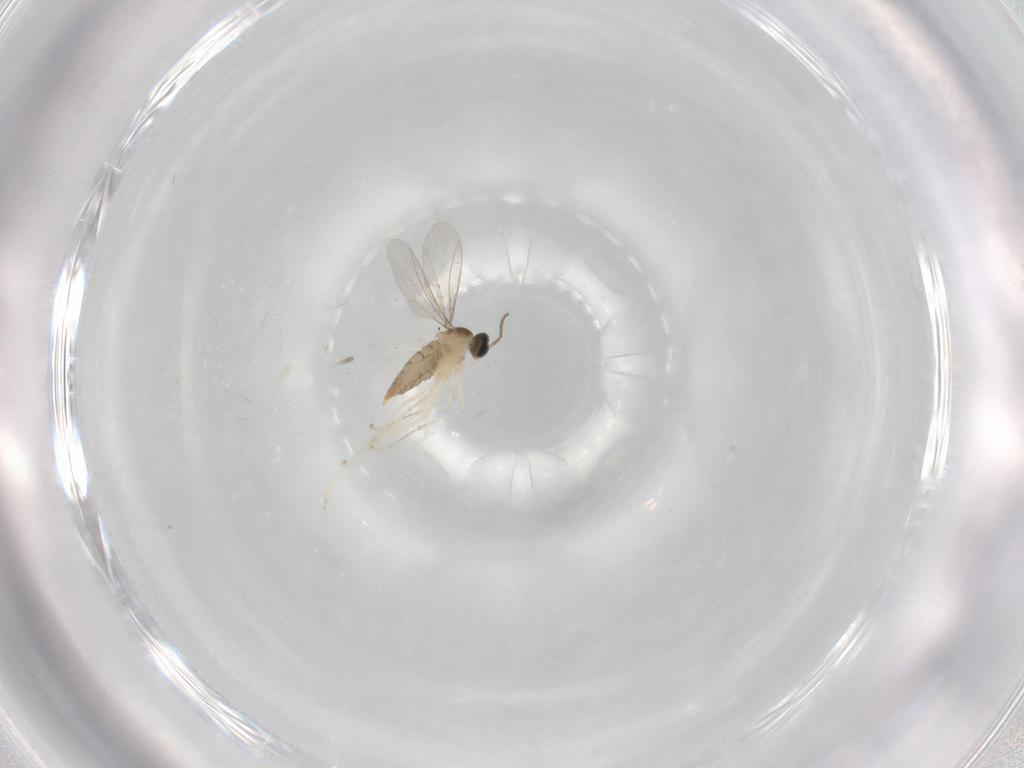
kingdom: Animalia
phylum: Arthropoda
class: Insecta
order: Diptera
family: Cecidomyiidae
